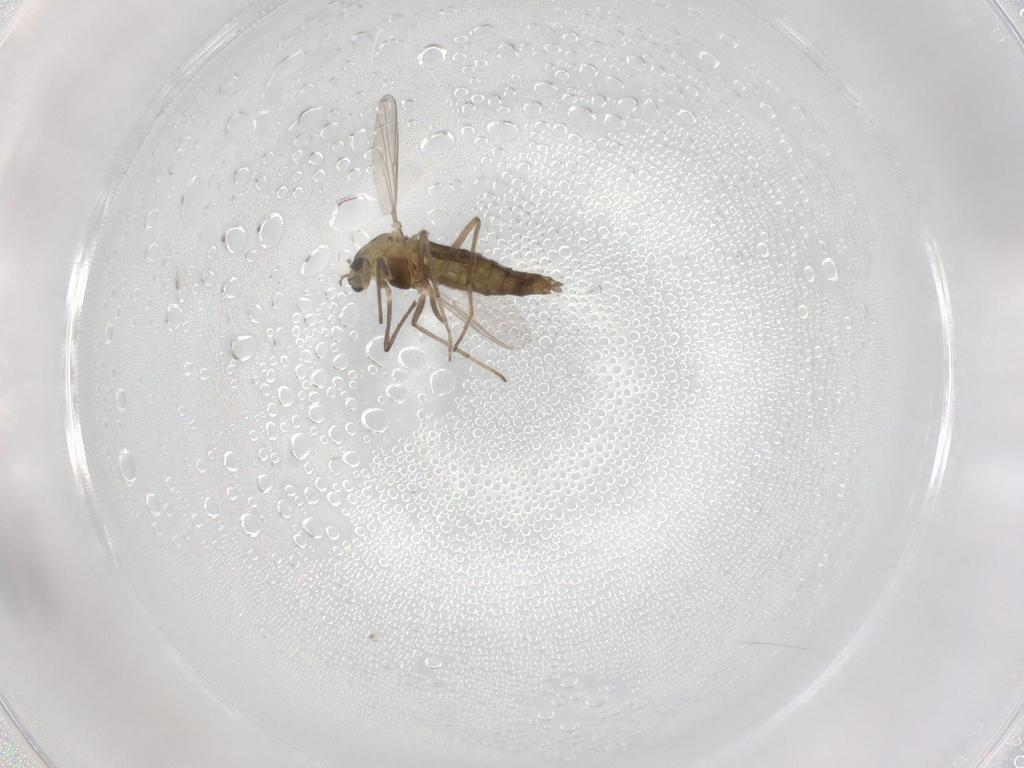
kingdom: Animalia
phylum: Arthropoda
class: Insecta
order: Diptera
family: Chironomidae
